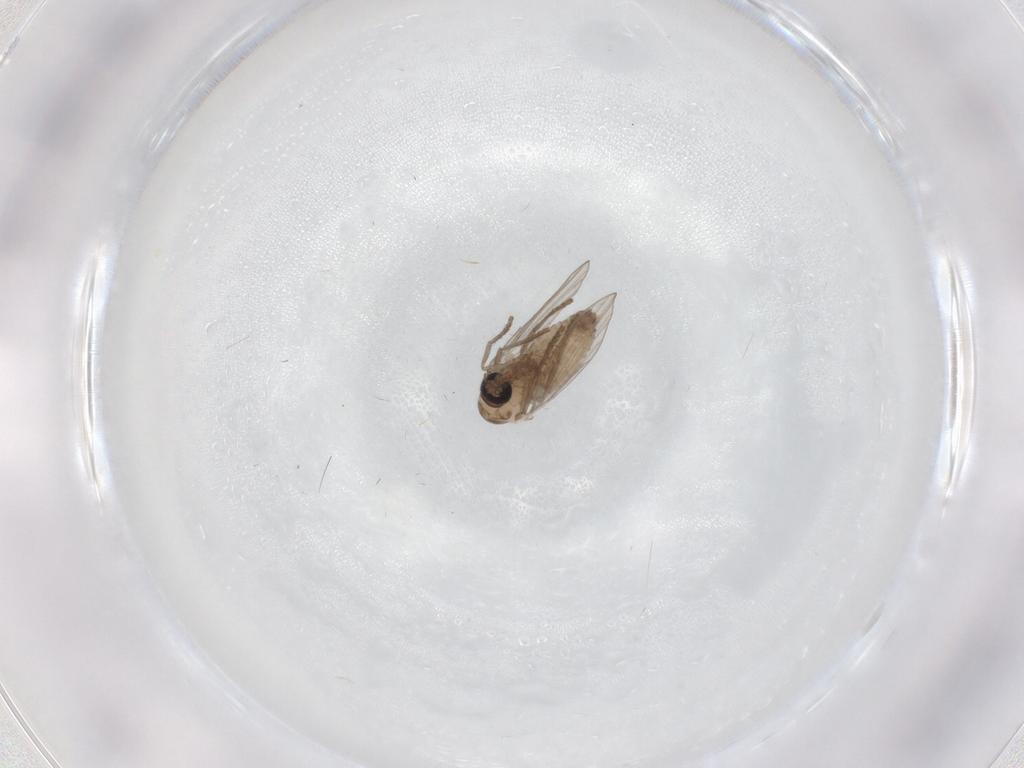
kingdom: Animalia
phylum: Arthropoda
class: Insecta
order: Diptera
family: Psychodidae
